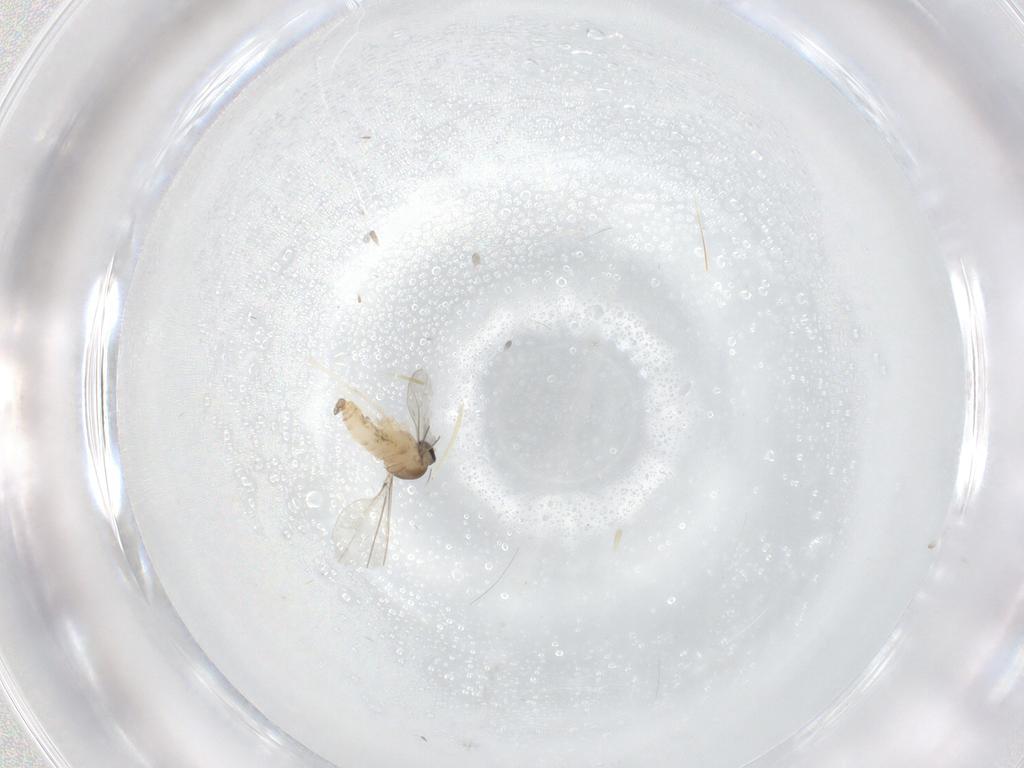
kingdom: Animalia
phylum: Arthropoda
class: Insecta
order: Diptera
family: Cecidomyiidae
